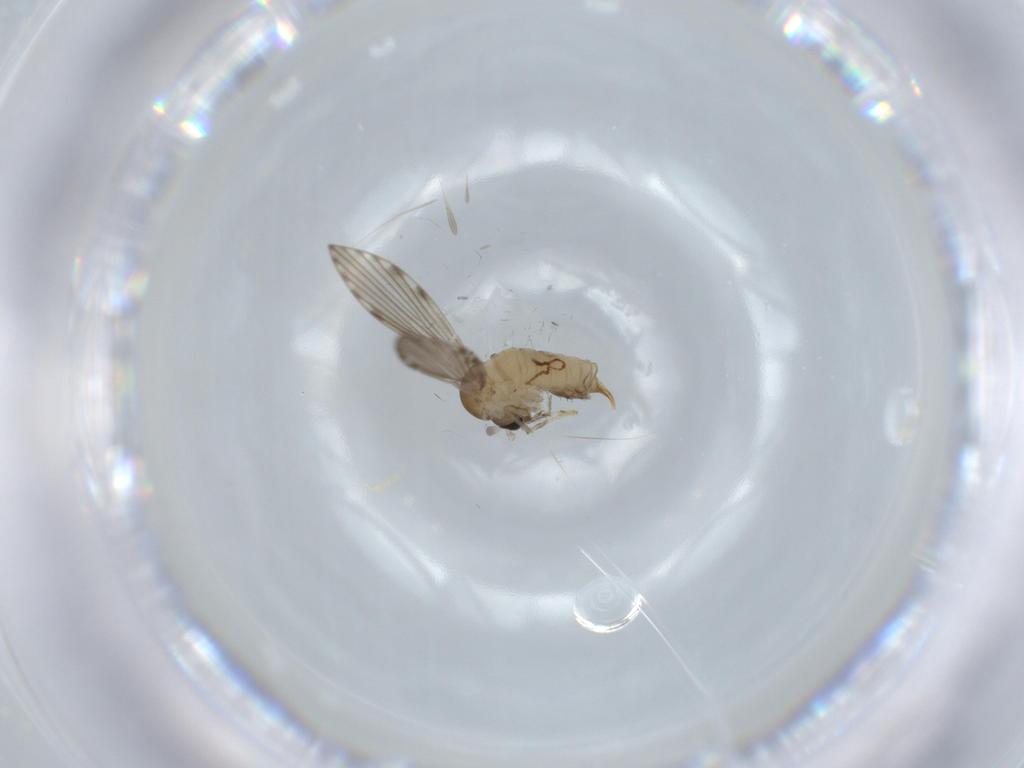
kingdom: Animalia
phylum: Arthropoda
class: Insecta
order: Diptera
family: Psychodidae
